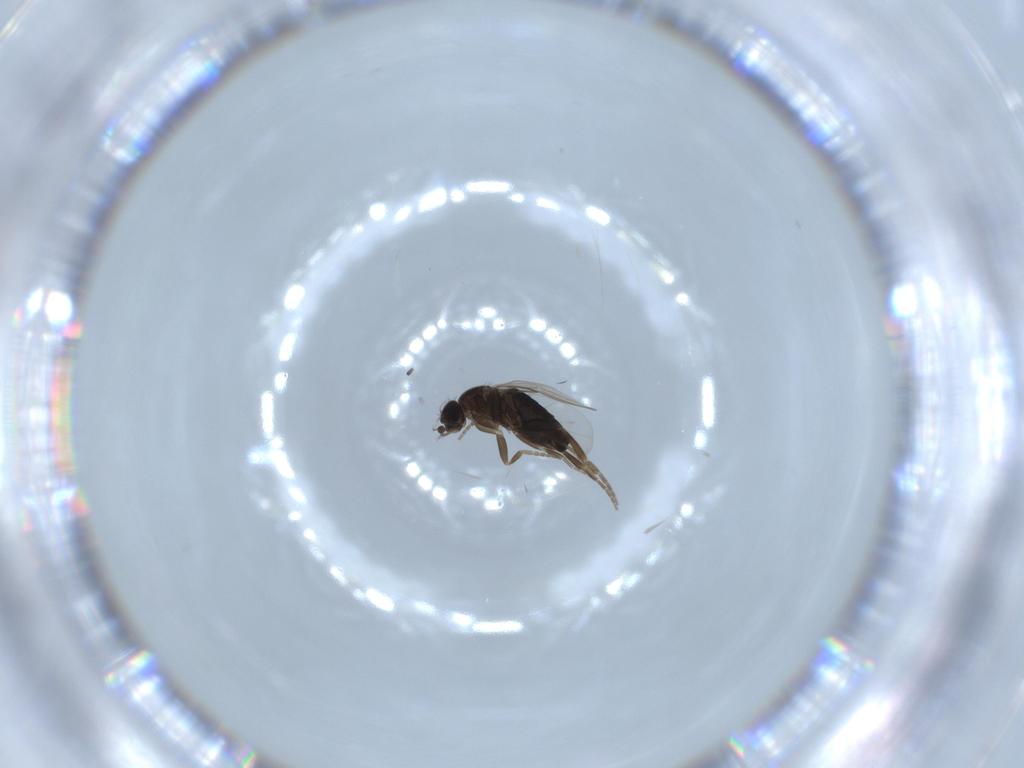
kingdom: Animalia
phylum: Arthropoda
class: Insecta
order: Diptera
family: Phoridae
